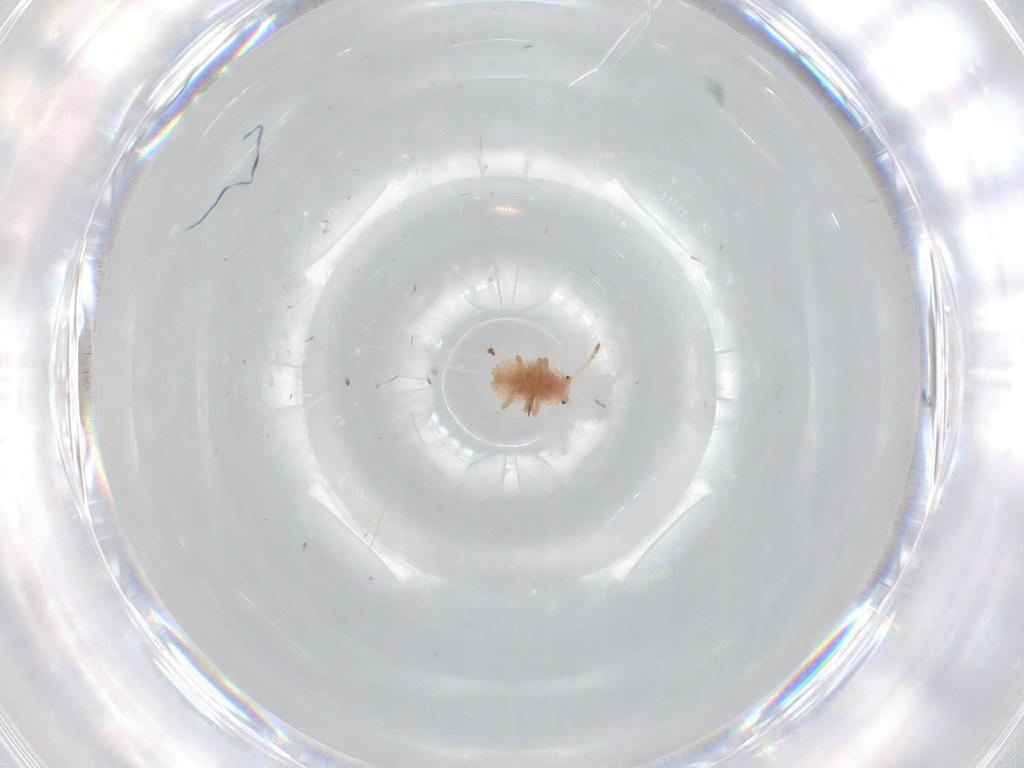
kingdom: Animalia
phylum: Arthropoda
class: Insecta
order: Hemiptera
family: Coccoidea_incertae_sedis
